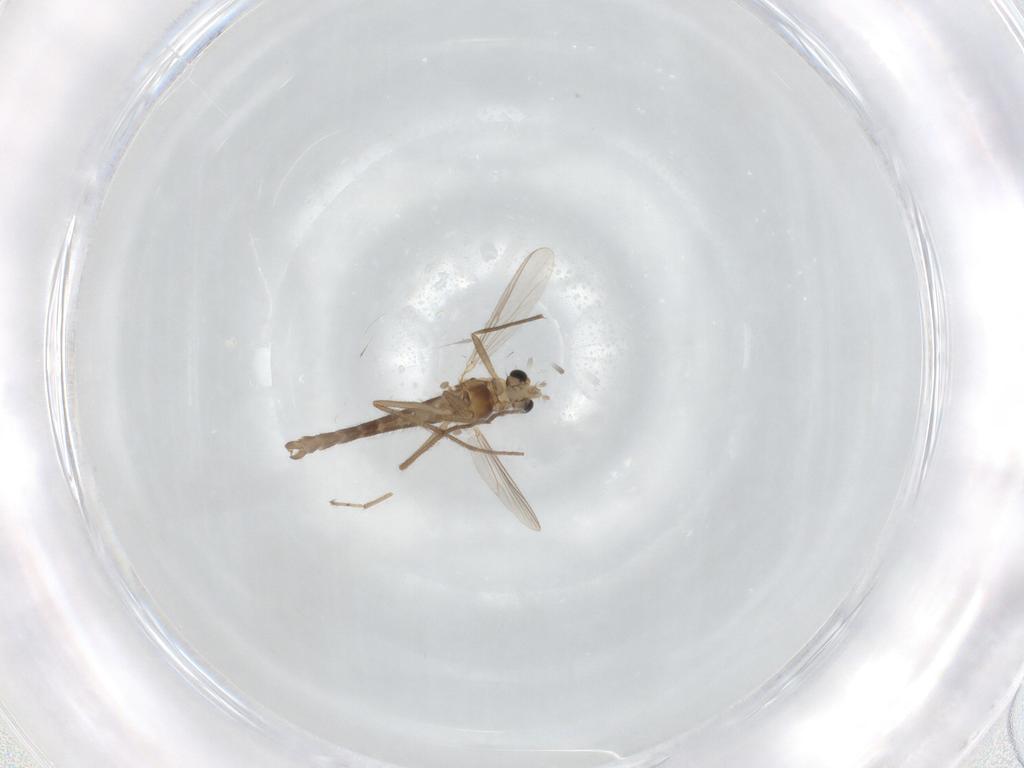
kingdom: Animalia
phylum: Arthropoda
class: Insecta
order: Diptera
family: Chironomidae
